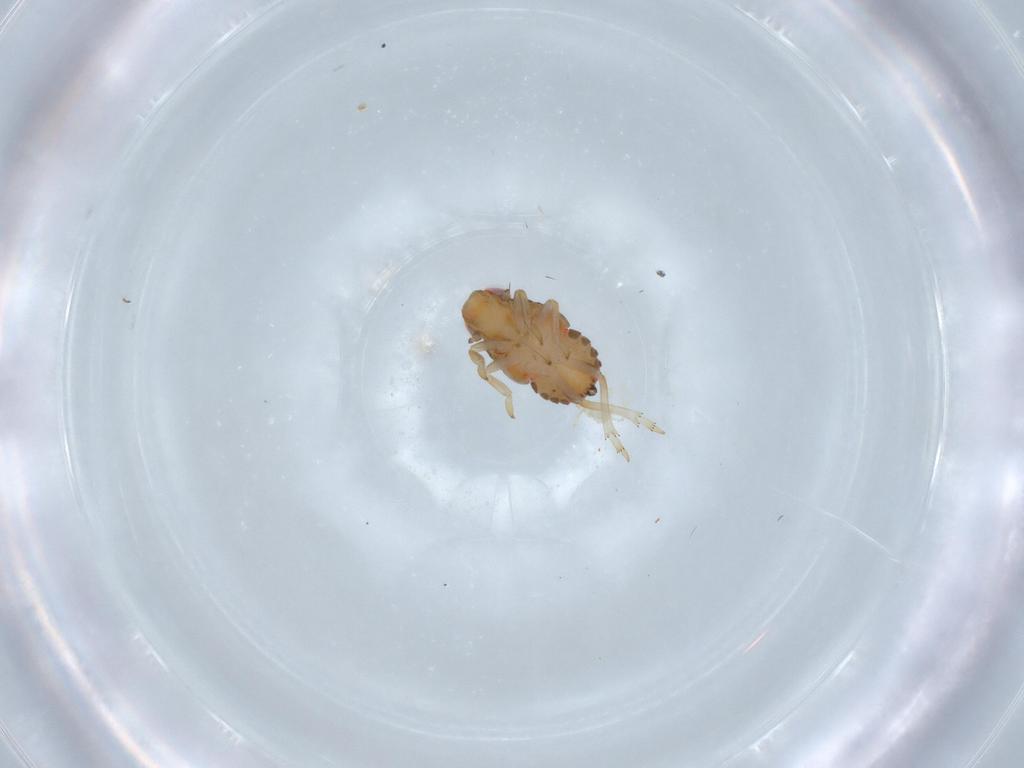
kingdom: Animalia
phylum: Arthropoda
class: Insecta
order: Hemiptera
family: Issidae
